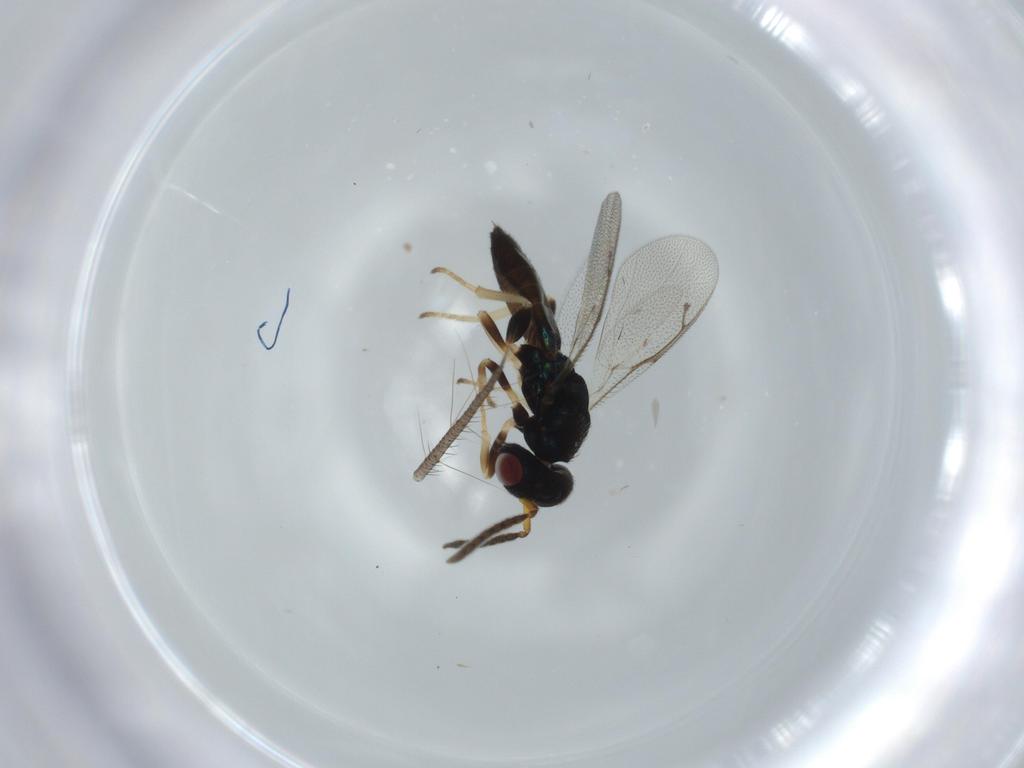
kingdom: Animalia
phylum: Arthropoda
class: Insecta
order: Hymenoptera
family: Pteromalidae
